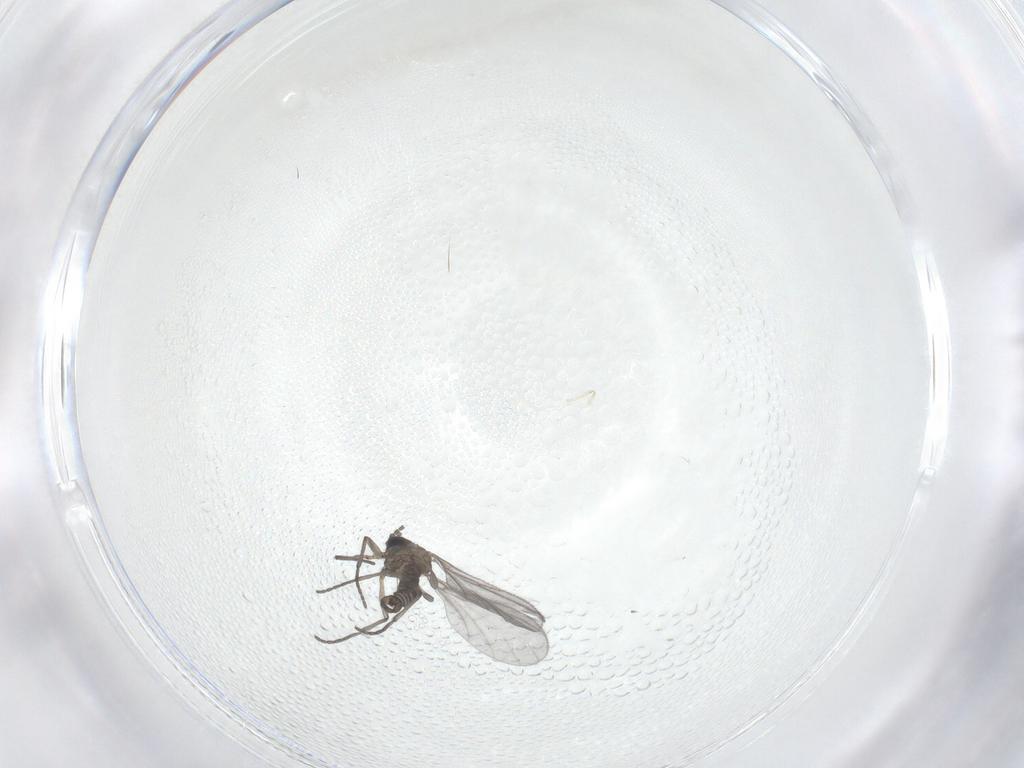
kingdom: Animalia
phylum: Arthropoda
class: Insecta
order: Diptera
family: Sciaridae
